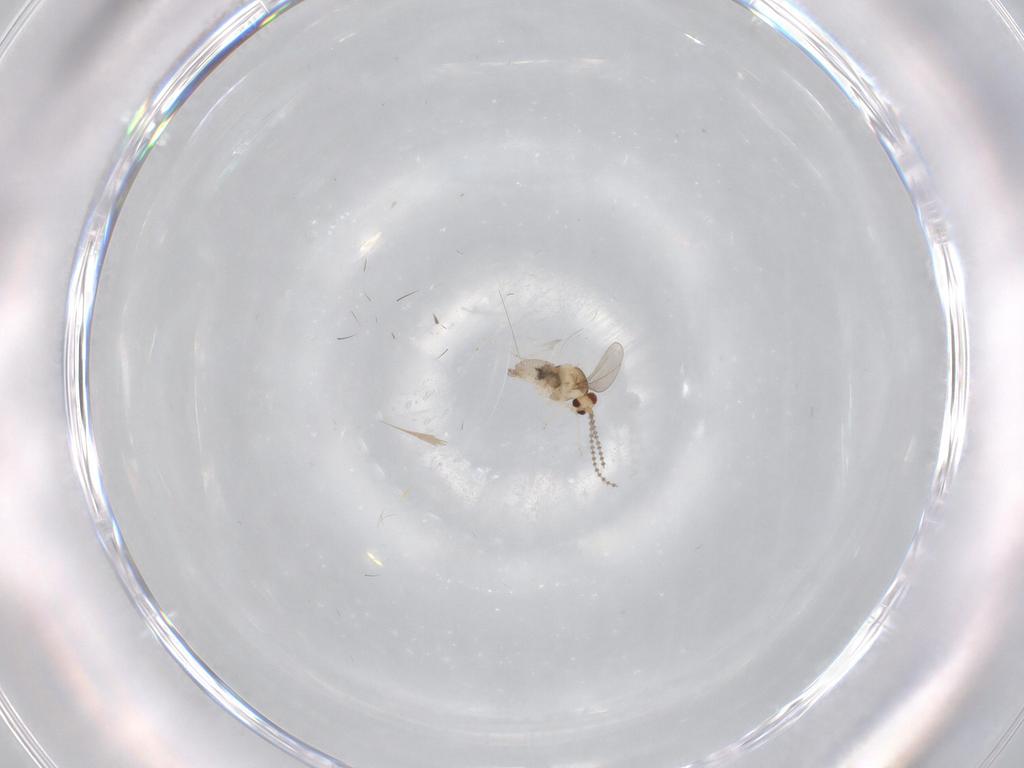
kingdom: Animalia
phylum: Arthropoda
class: Insecta
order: Diptera
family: Cecidomyiidae
